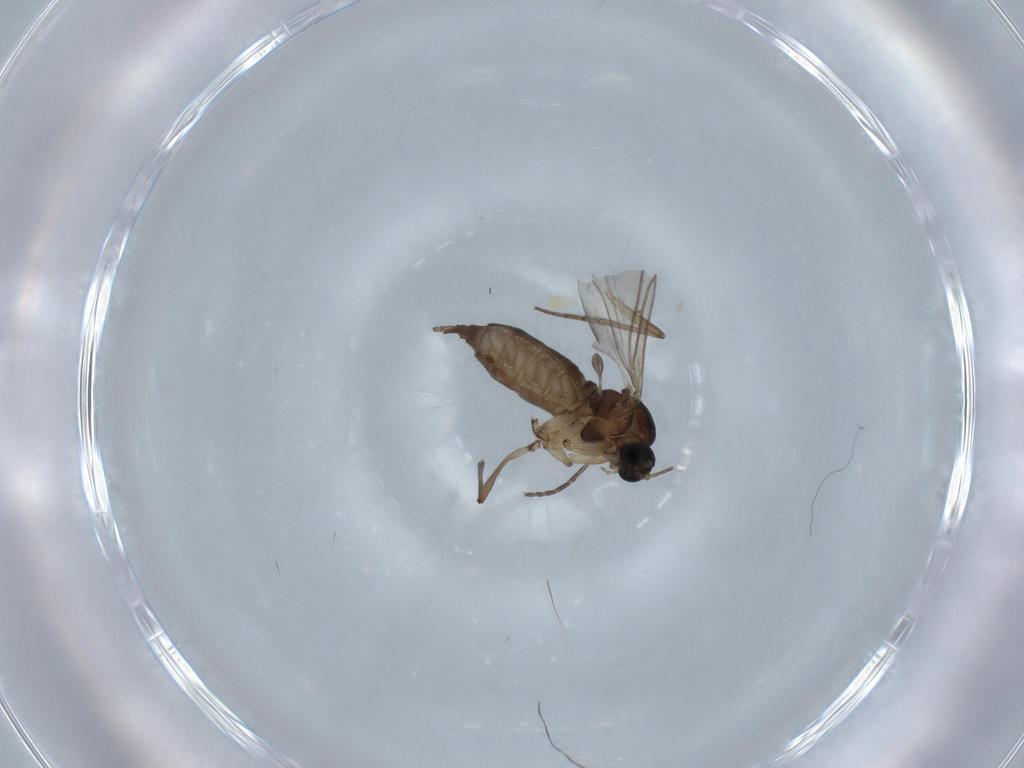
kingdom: Animalia
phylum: Arthropoda
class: Insecta
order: Diptera
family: Sciaridae
